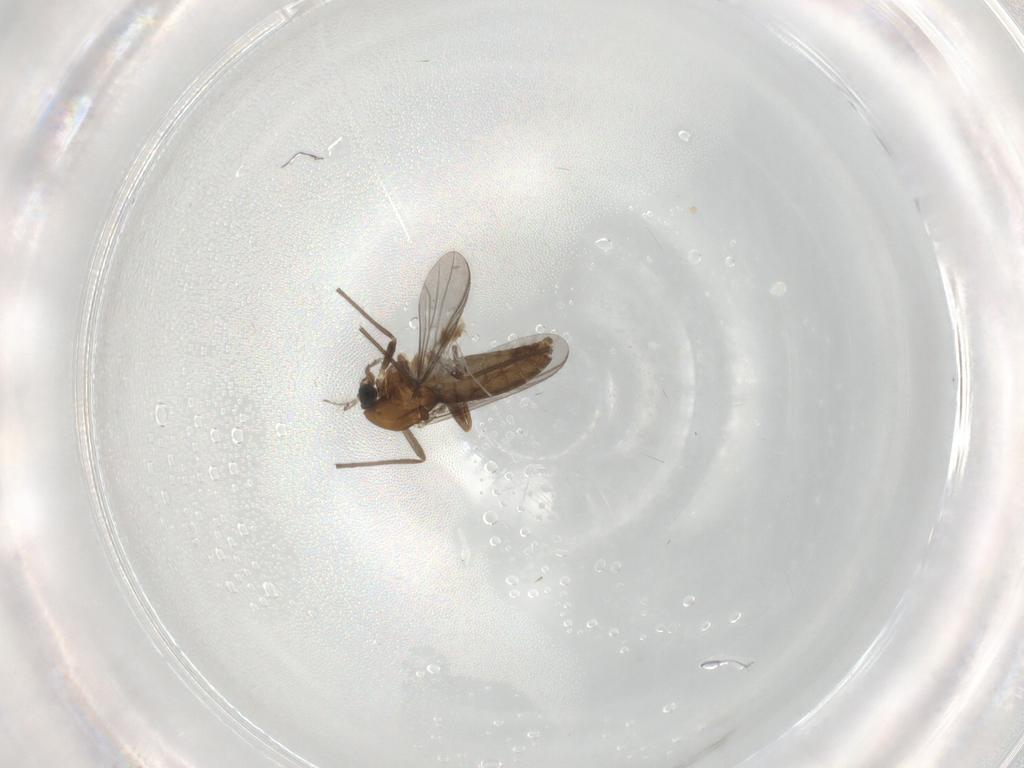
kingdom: Animalia
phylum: Arthropoda
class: Insecta
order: Diptera
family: Chironomidae
